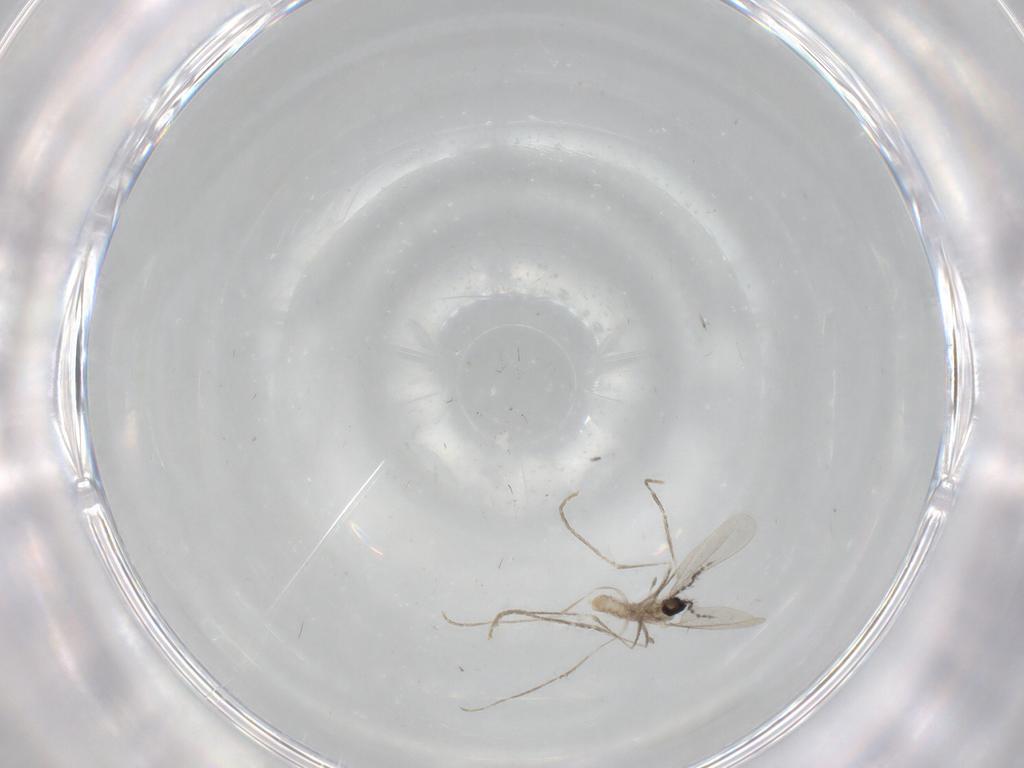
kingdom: Animalia
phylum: Arthropoda
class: Insecta
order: Diptera
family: Cecidomyiidae
